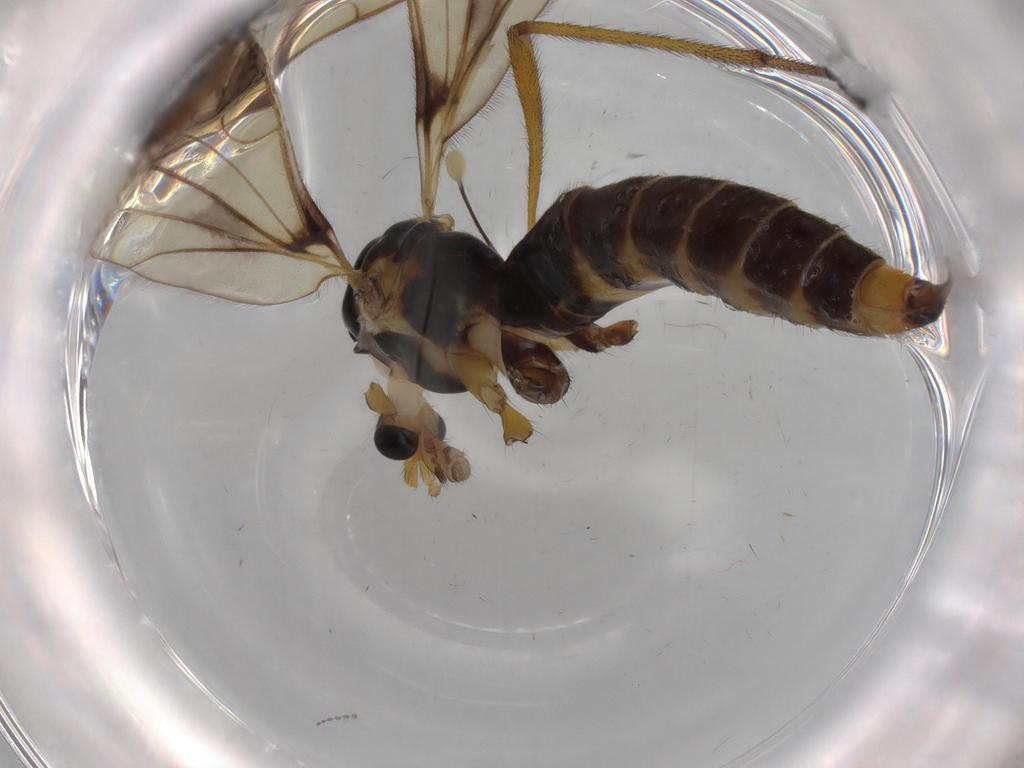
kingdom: Animalia
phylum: Arthropoda
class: Insecta
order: Diptera
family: Limoniidae
